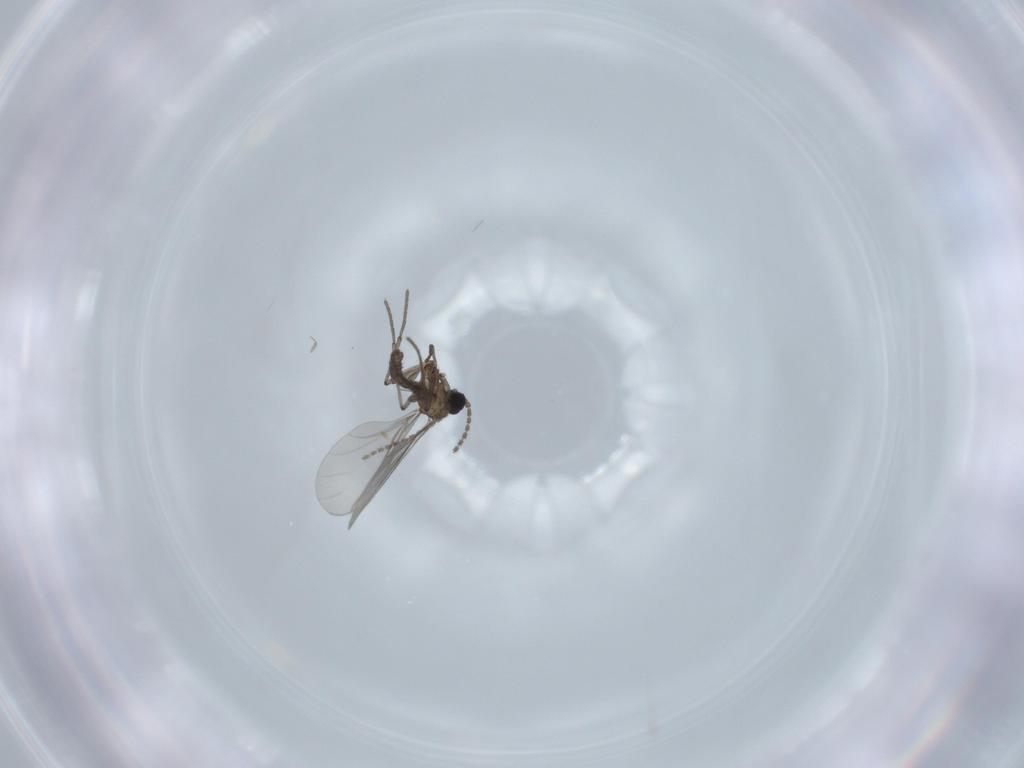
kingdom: Animalia
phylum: Arthropoda
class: Insecta
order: Diptera
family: Sciaridae
